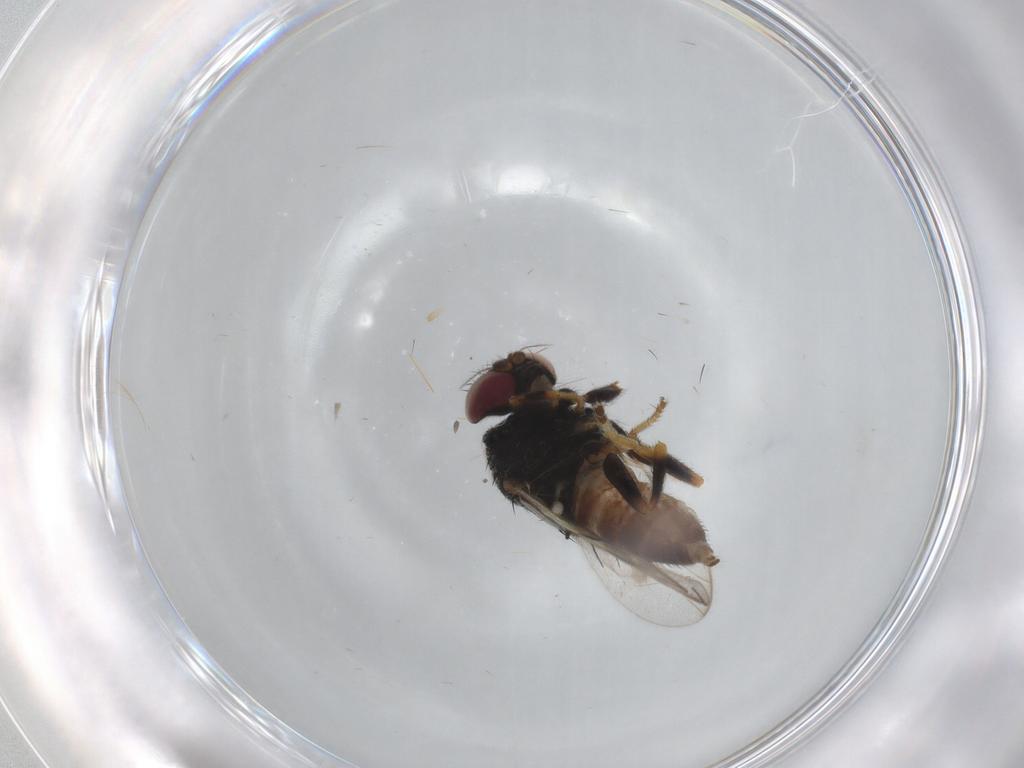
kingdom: Animalia
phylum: Arthropoda
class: Insecta
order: Diptera
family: Chloropidae
